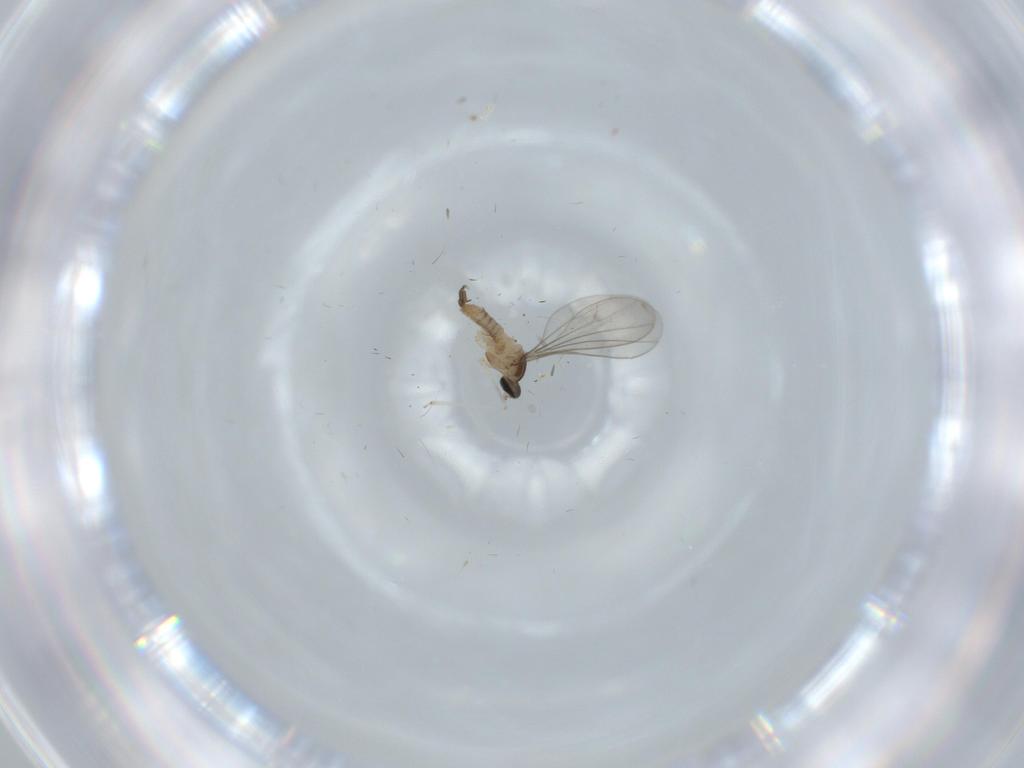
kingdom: Animalia
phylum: Arthropoda
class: Insecta
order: Diptera
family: Cecidomyiidae
